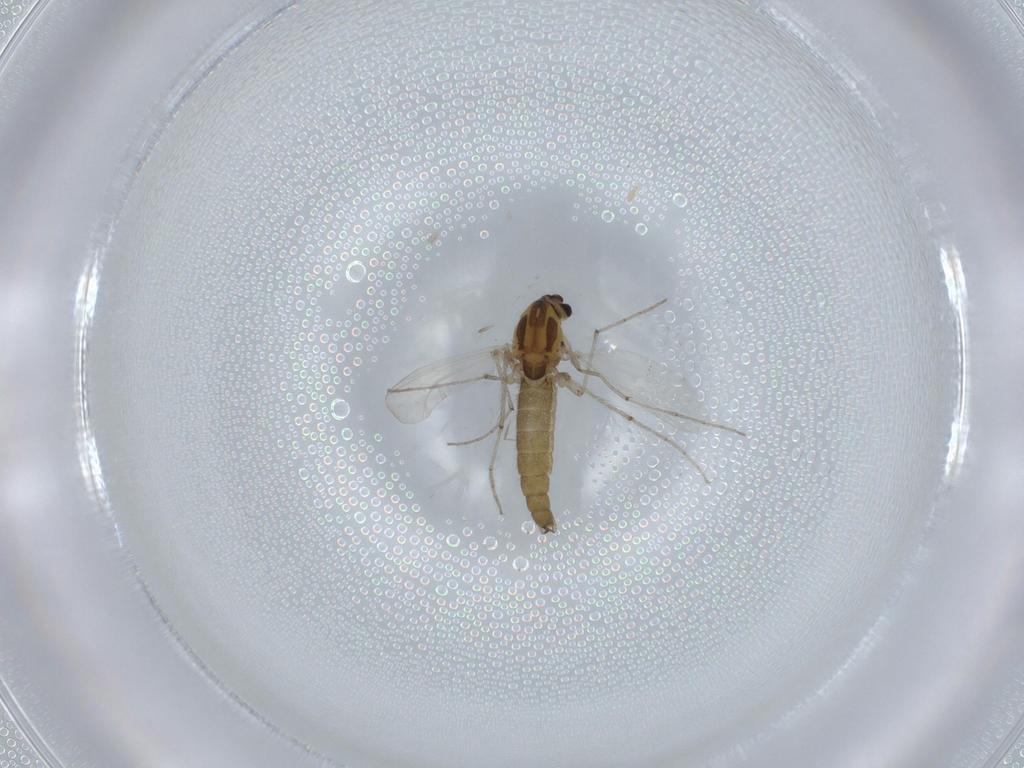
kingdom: Animalia
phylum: Arthropoda
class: Insecta
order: Diptera
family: Chironomidae
